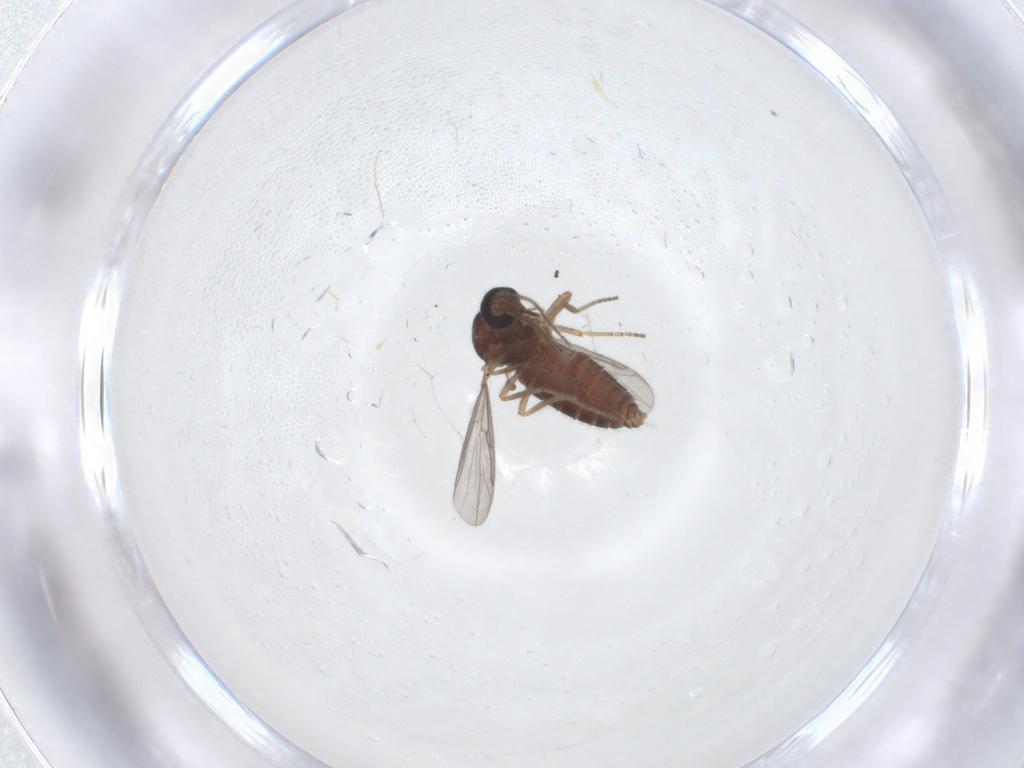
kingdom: Animalia
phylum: Arthropoda
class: Insecta
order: Diptera
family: Ceratopogonidae
